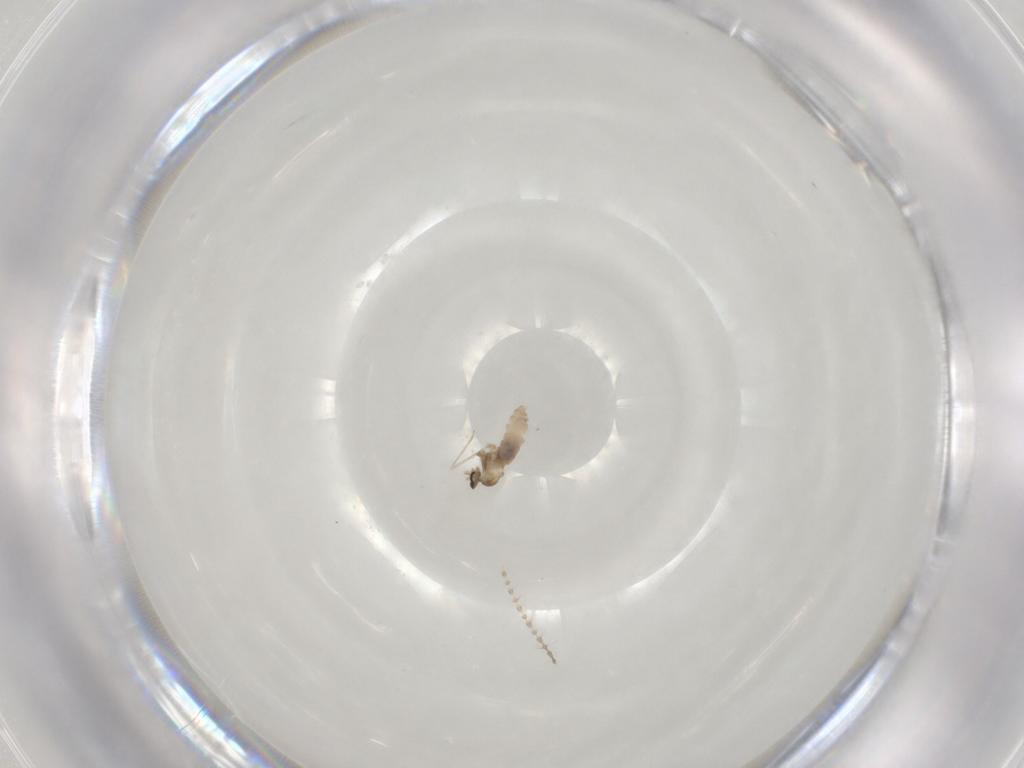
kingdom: Animalia
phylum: Arthropoda
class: Insecta
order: Diptera
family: Cecidomyiidae
